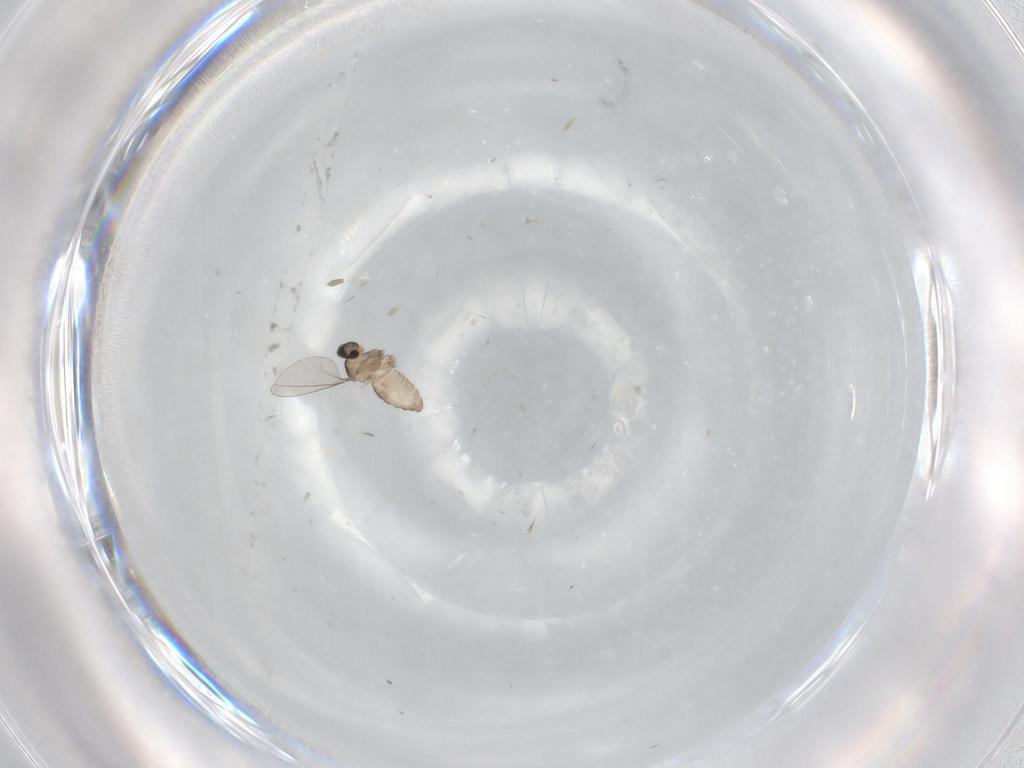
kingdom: Animalia
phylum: Arthropoda
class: Insecta
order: Diptera
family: Cecidomyiidae
